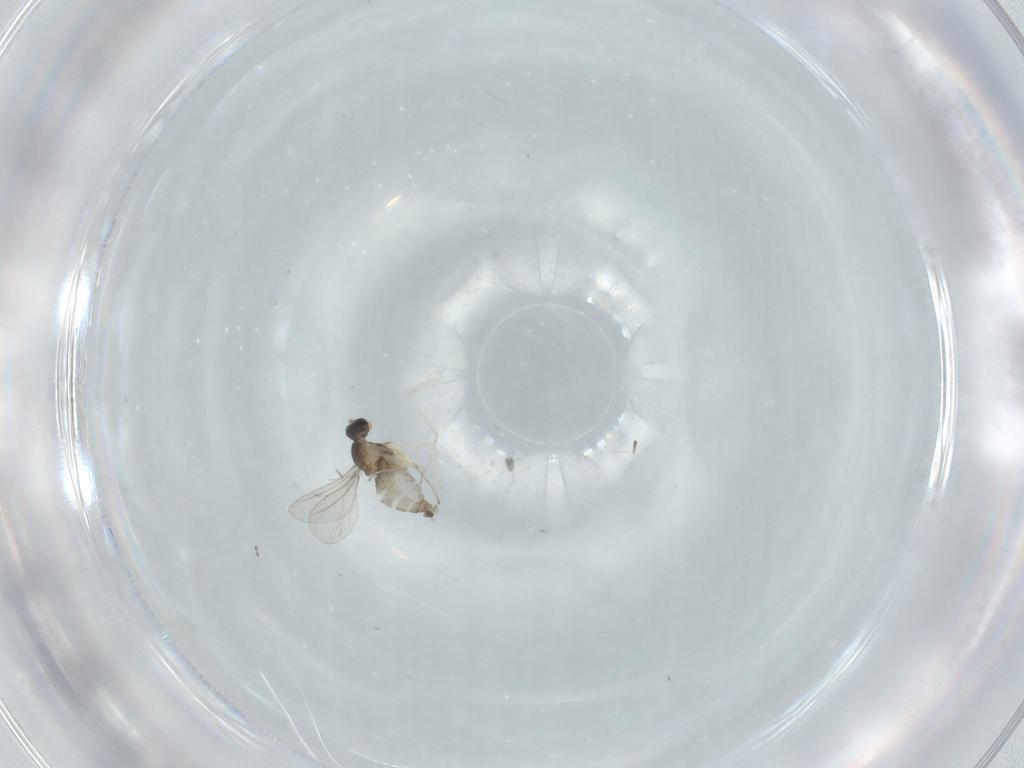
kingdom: Animalia
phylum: Arthropoda
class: Insecta
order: Diptera
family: Cecidomyiidae
